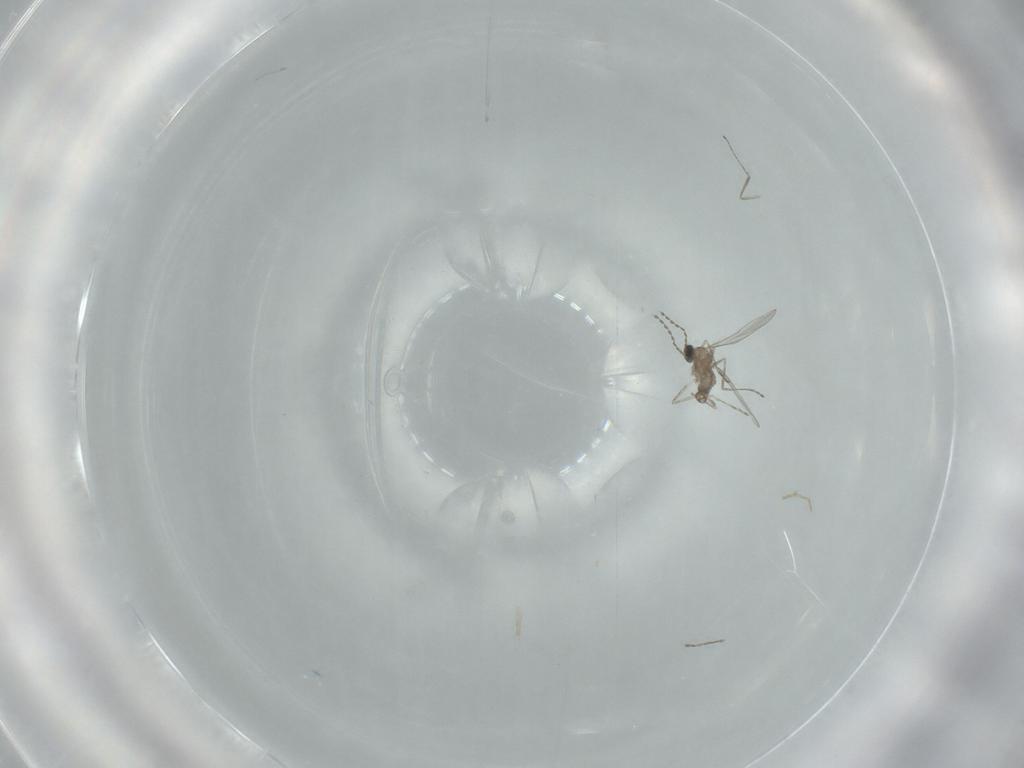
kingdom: Animalia
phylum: Arthropoda
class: Insecta
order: Diptera
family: Cecidomyiidae
